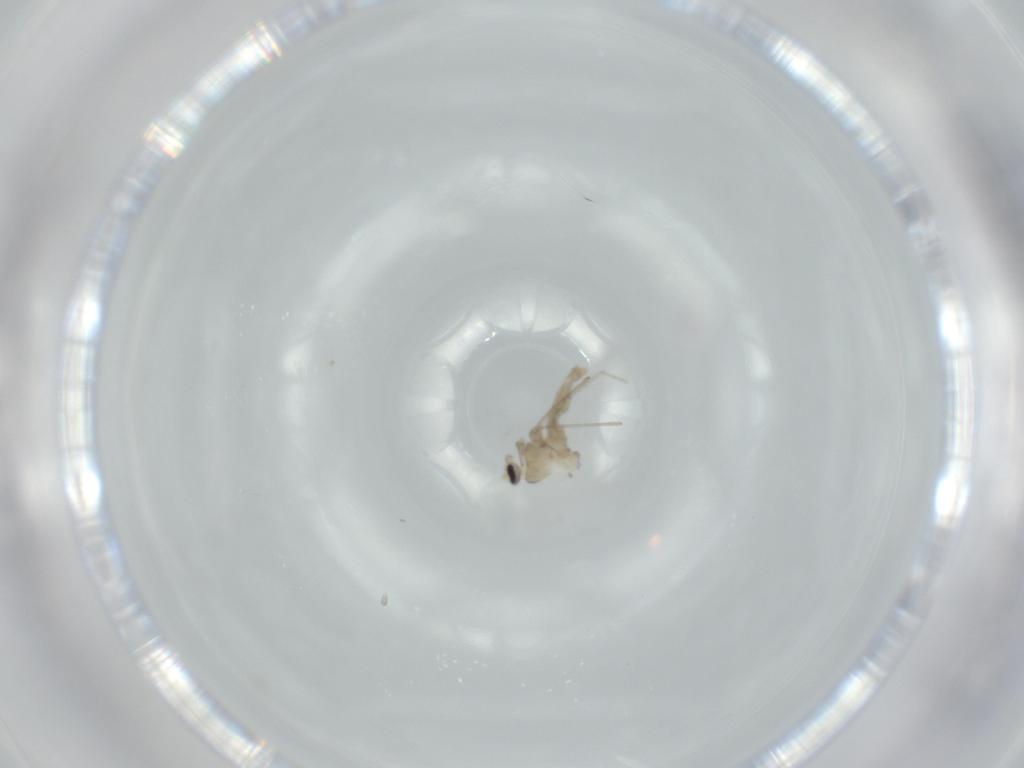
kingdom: Animalia
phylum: Arthropoda
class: Insecta
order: Diptera
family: Cecidomyiidae
